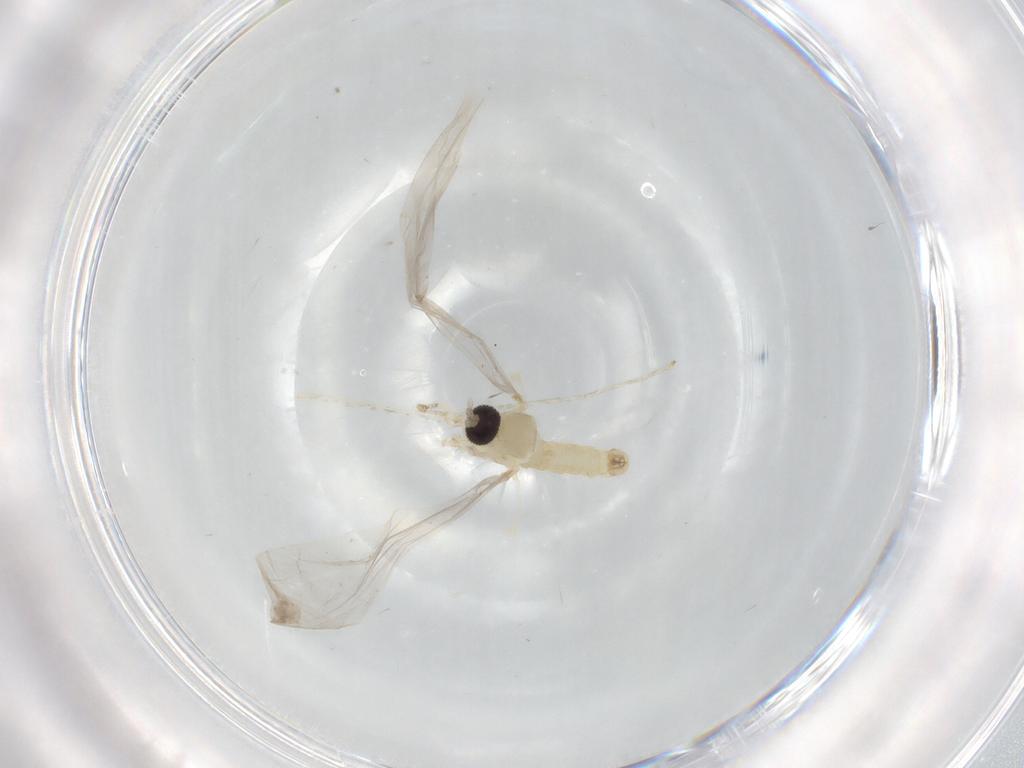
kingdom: Animalia
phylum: Arthropoda
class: Insecta
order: Diptera
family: Cecidomyiidae
